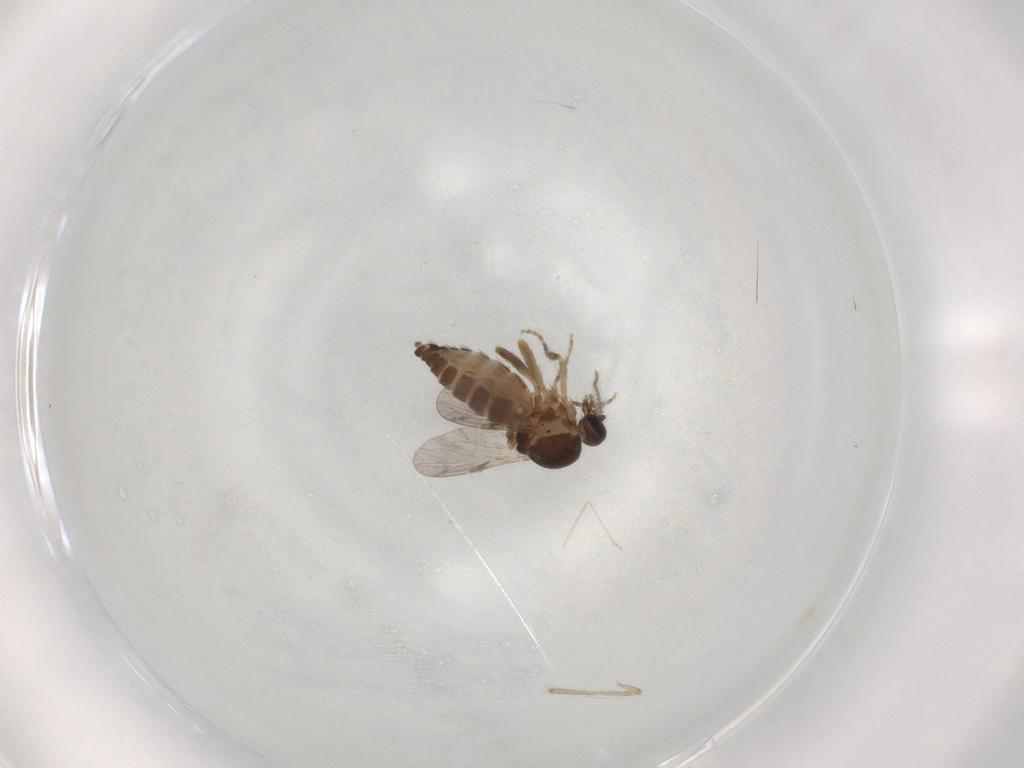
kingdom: Animalia
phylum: Arthropoda
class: Insecta
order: Diptera
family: Ceratopogonidae
